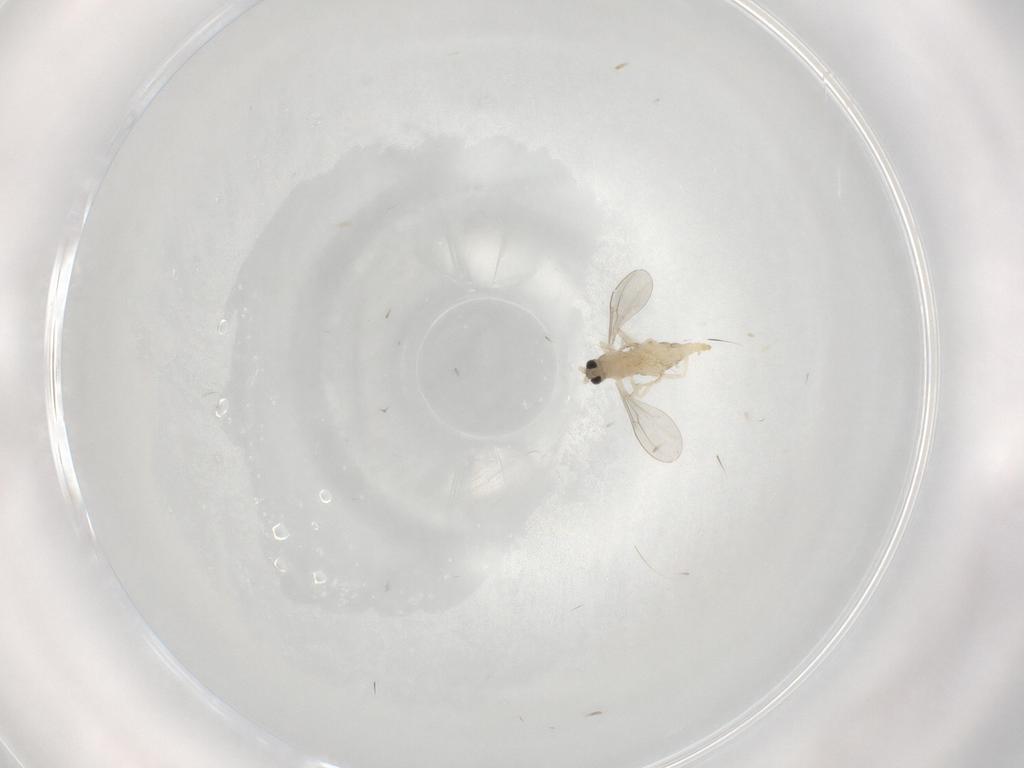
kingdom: Animalia
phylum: Arthropoda
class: Insecta
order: Diptera
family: Cecidomyiidae
